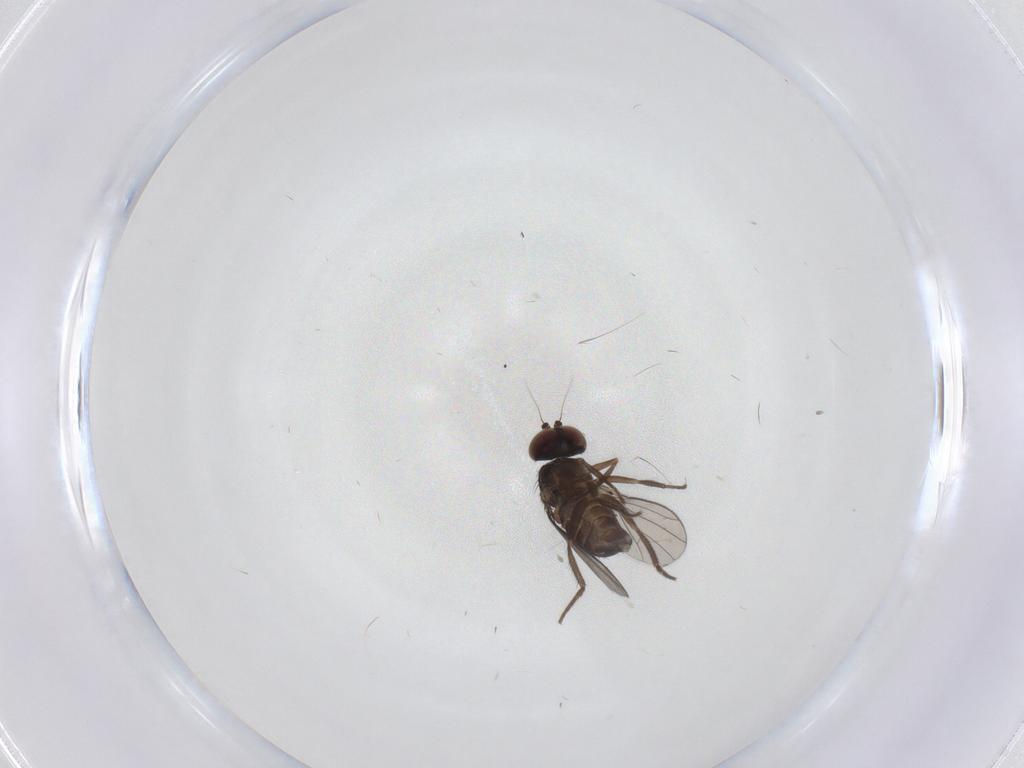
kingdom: Animalia
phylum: Arthropoda
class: Insecta
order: Diptera
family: Dolichopodidae
